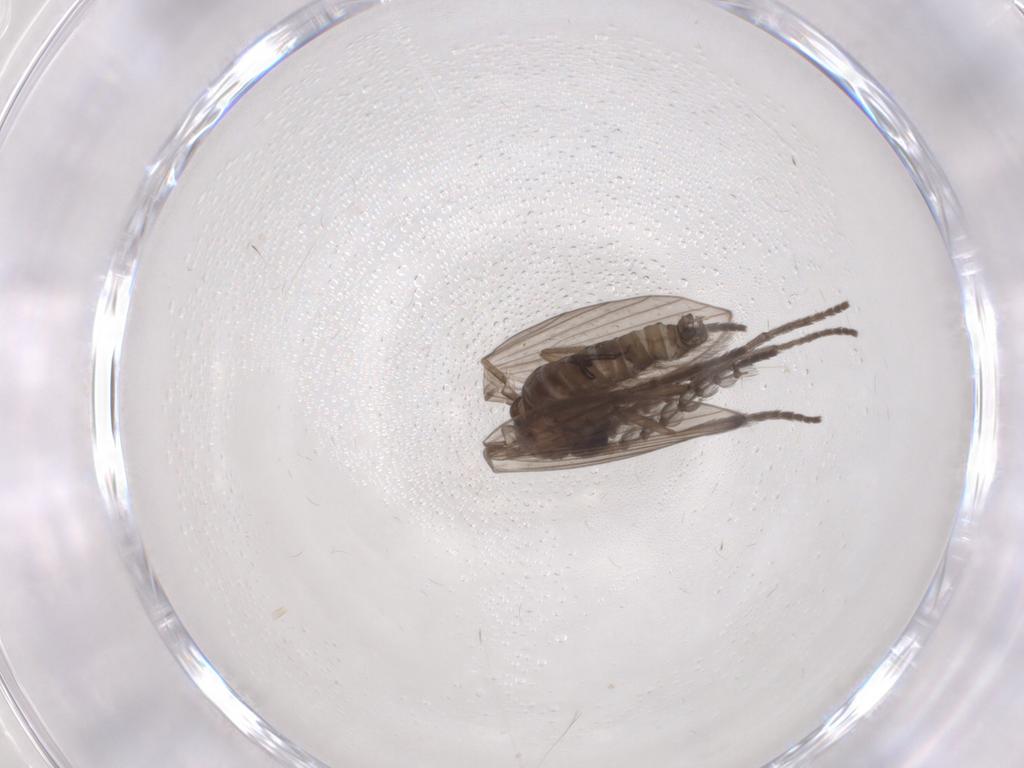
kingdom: Animalia
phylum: Arthropoda
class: Insecta
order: Diptera
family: Psychodidae
